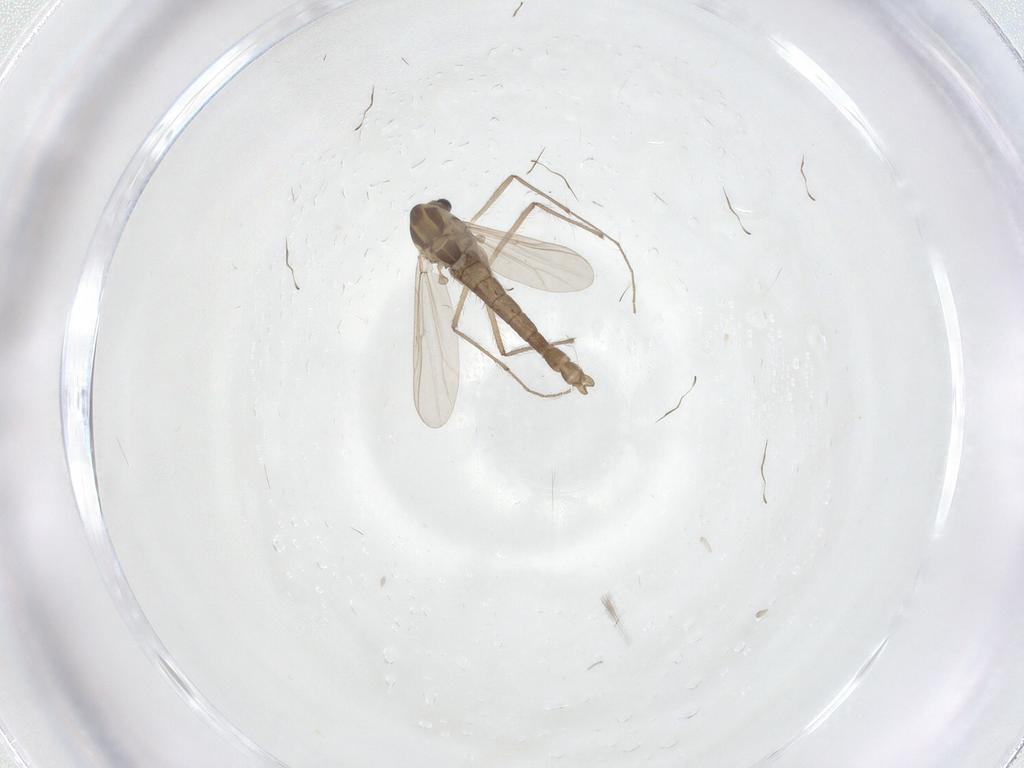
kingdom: Animalia
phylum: Arthropoda
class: Insecta
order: Diptera
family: Chironomidae
